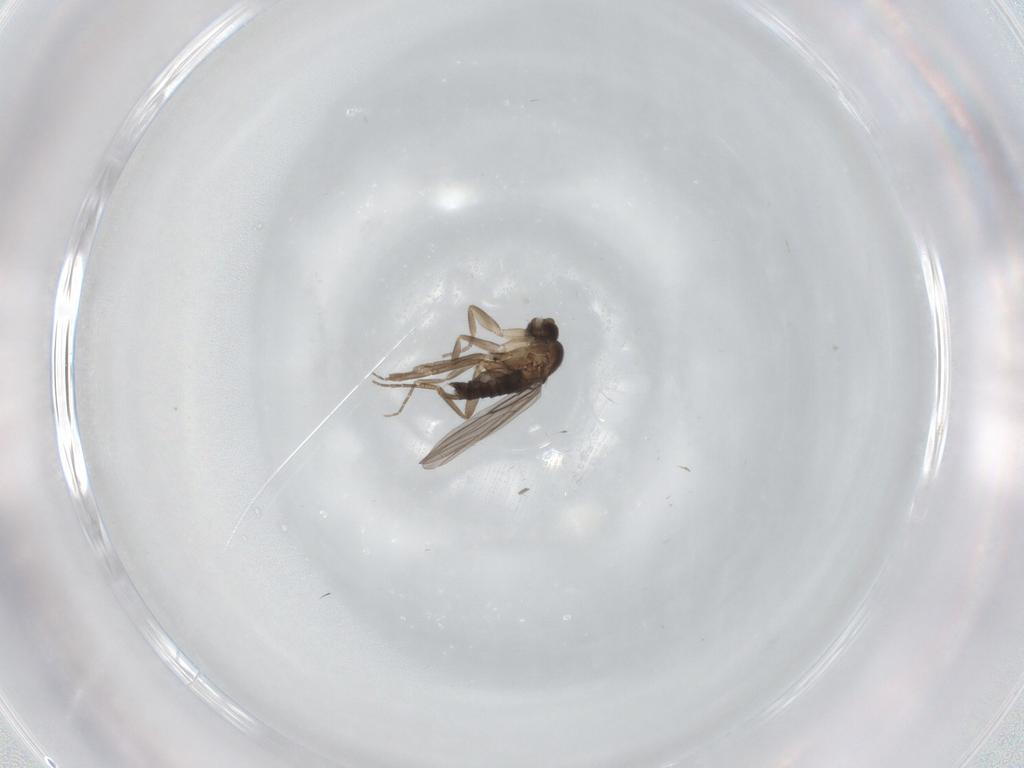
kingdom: Animalia
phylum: Arthropoda
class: Insecta
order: Diptera
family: Phoridae
